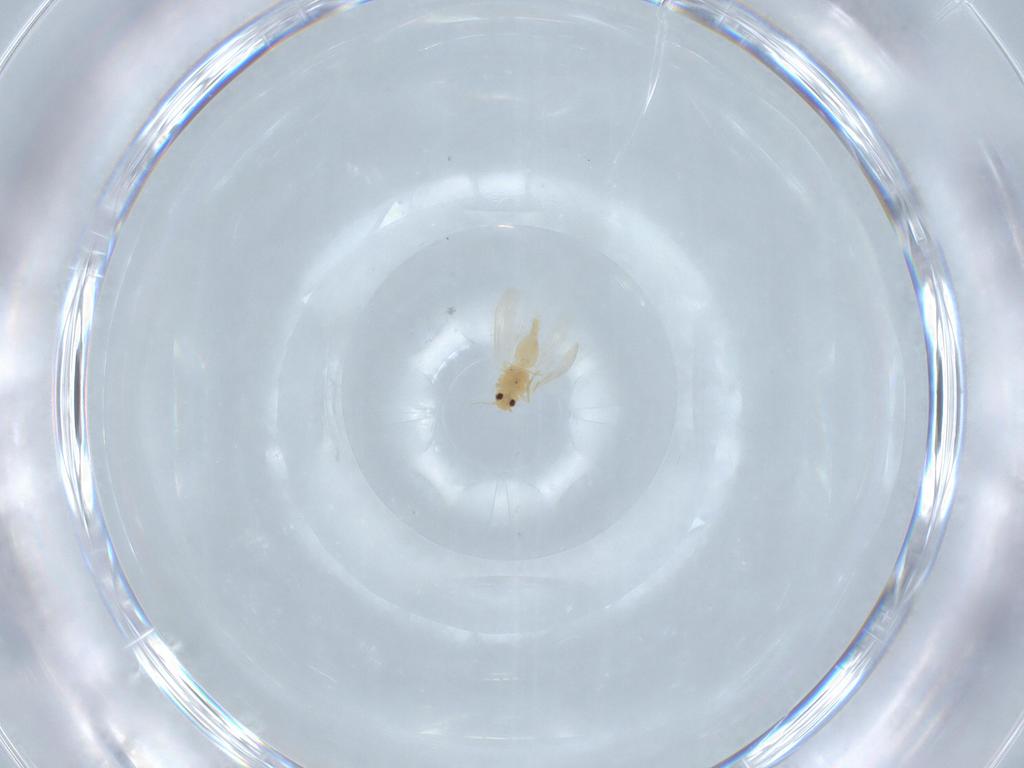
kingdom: Animalia
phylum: Arthropoda
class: Insecta
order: Hemiptera
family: Aleyrodidae
